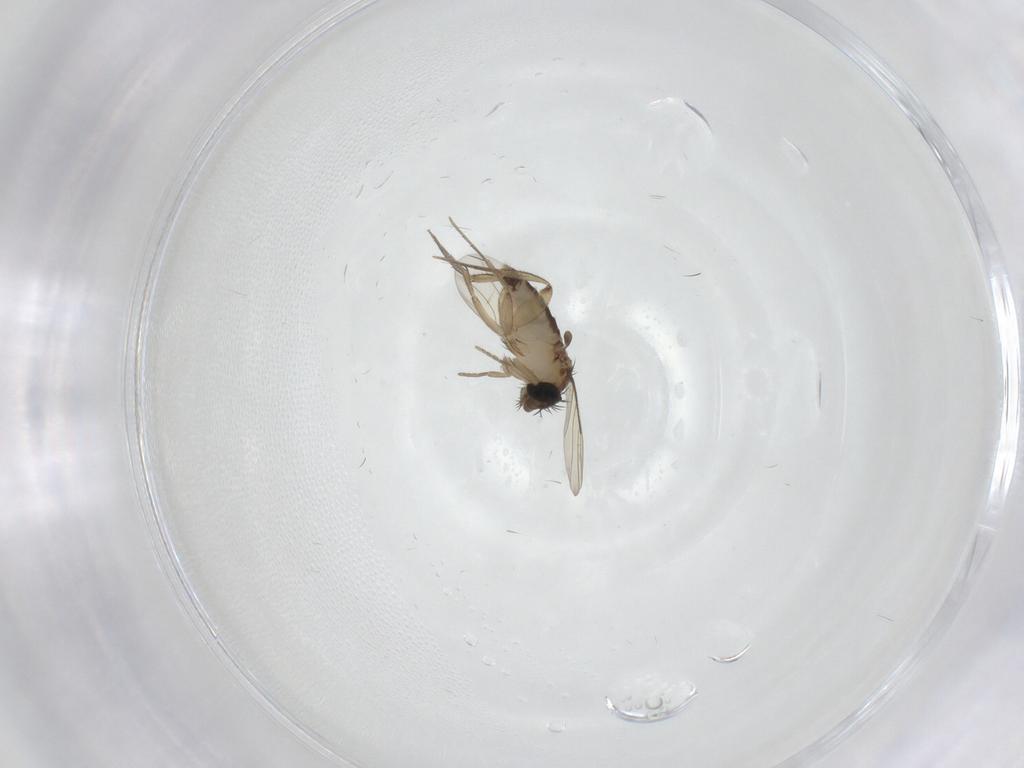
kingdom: Animalia
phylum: Arthropoda
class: Insecta
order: Diptera
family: Phoridae
